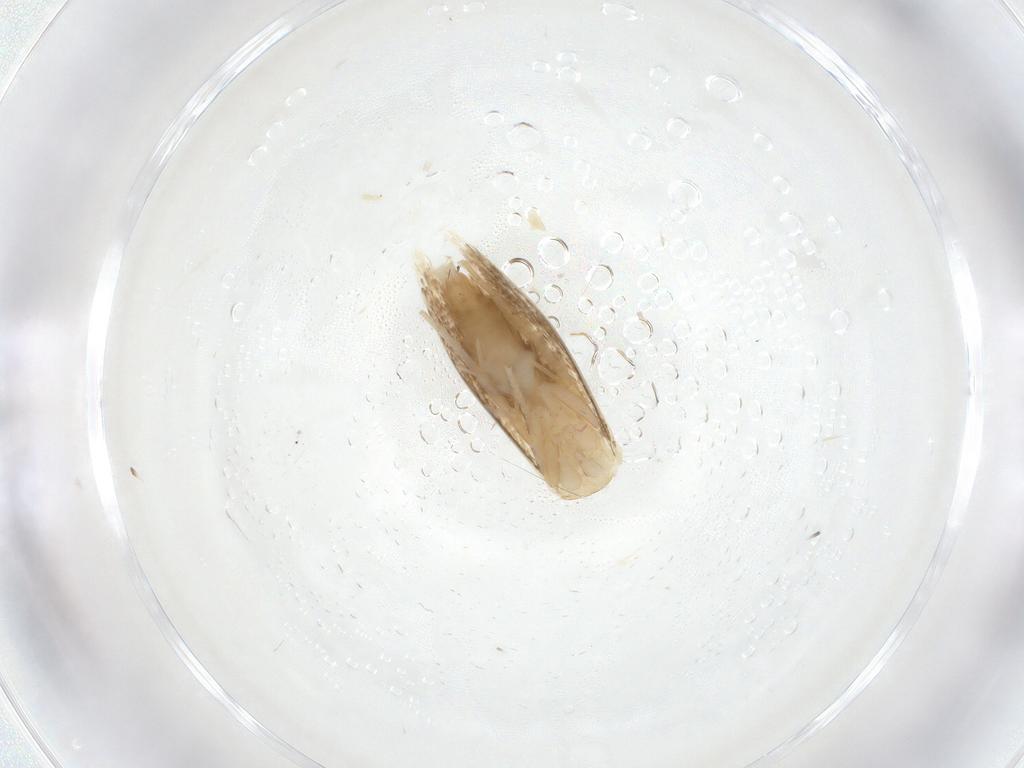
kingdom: Animalia
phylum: Arthropoda
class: Insecta
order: Lepidoptera
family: Tineidae
